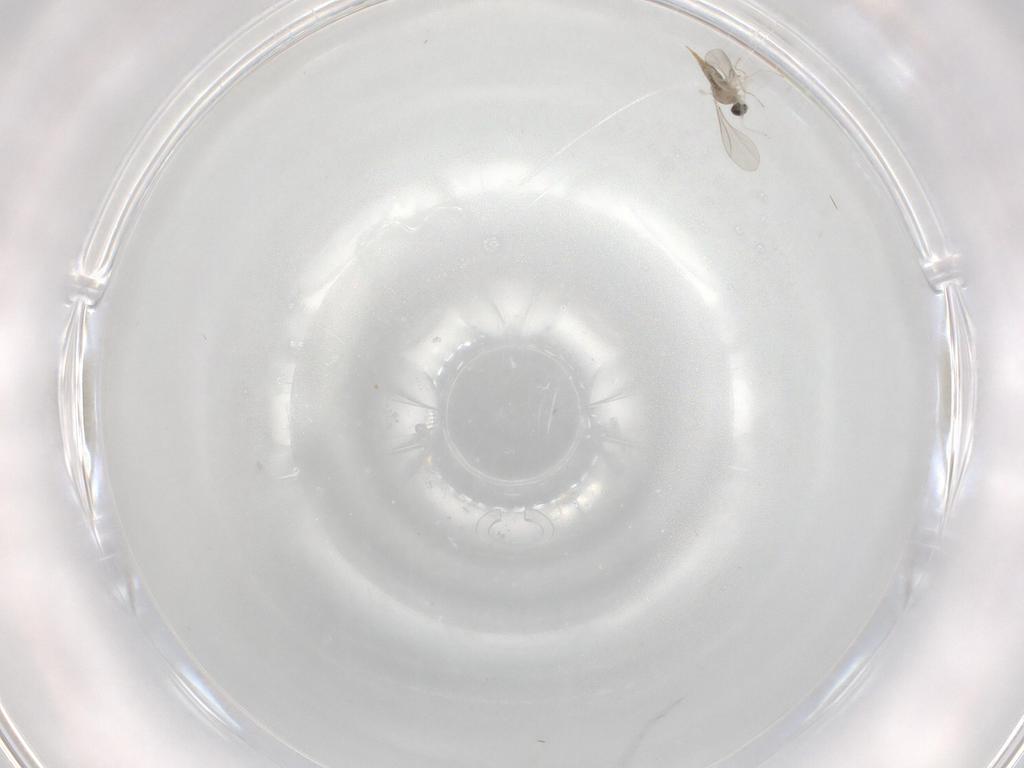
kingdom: Animalia
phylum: Arthropoda
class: Insecta
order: Diptera
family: Cecidomyiidae
